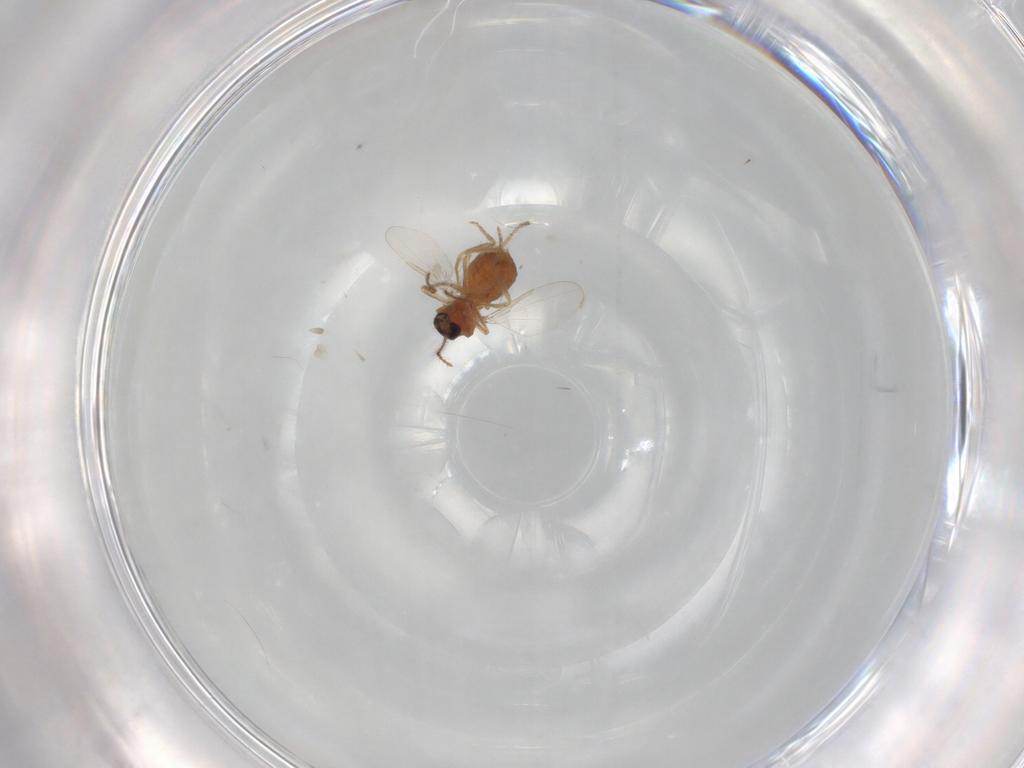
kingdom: Animalia
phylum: Arthropoda
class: Insecta
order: Diptera
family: Ceratopogonidae
